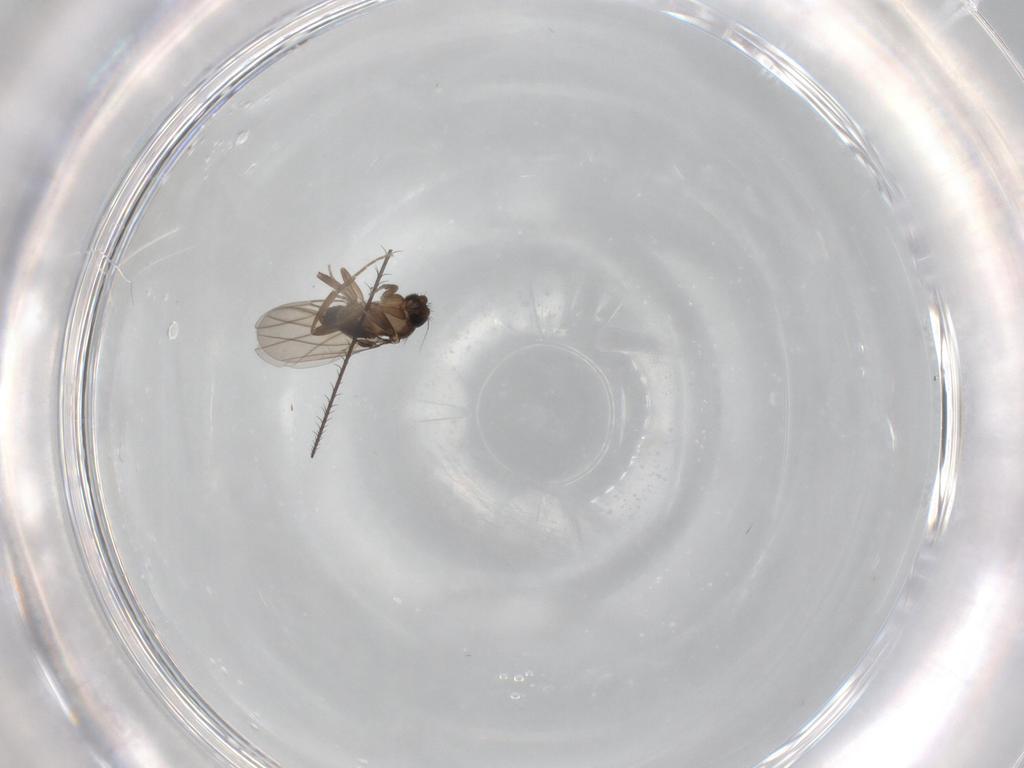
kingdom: Animalia
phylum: Arthropoda
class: Insecta
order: Diptera
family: Phoridae
